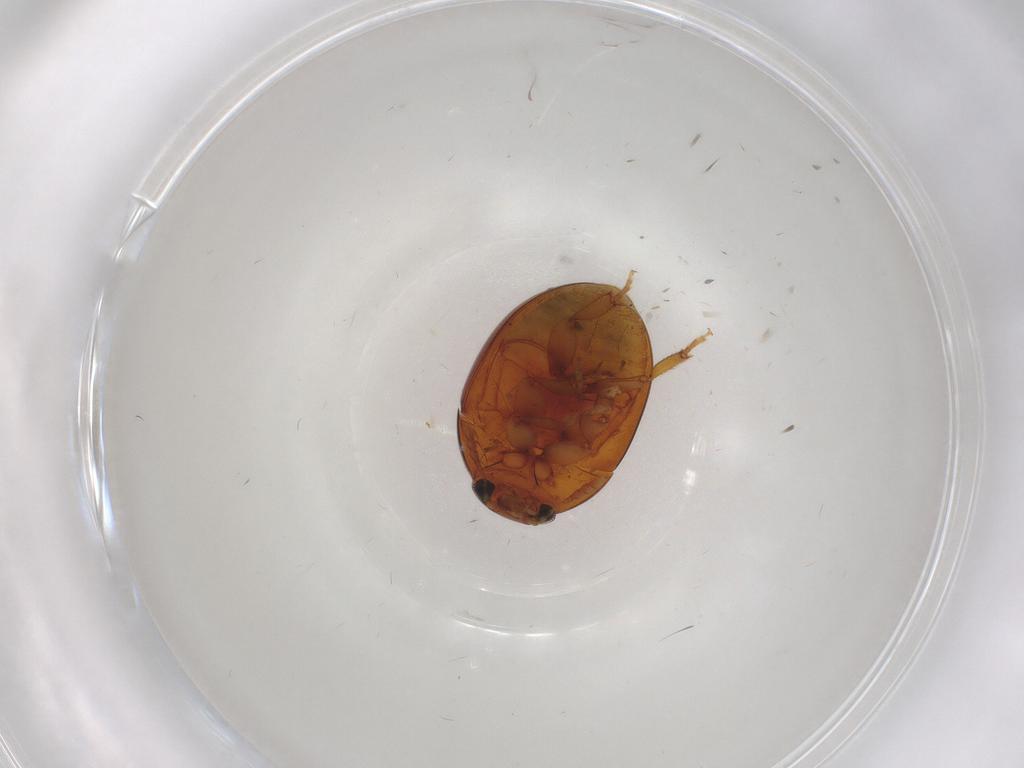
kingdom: Animalia
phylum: Arthropoda
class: Insecta
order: Coleoptera
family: Phalacridae
